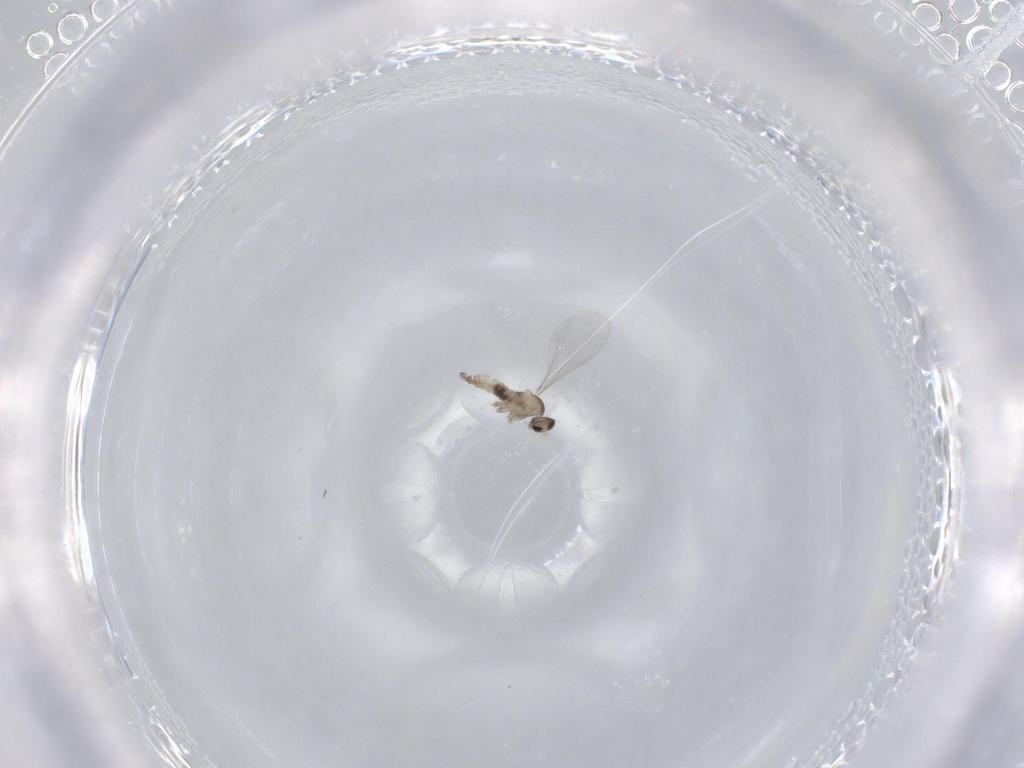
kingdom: Animalia
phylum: Arthropoda
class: Insecta
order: Diptera
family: Cecidomyiidae
